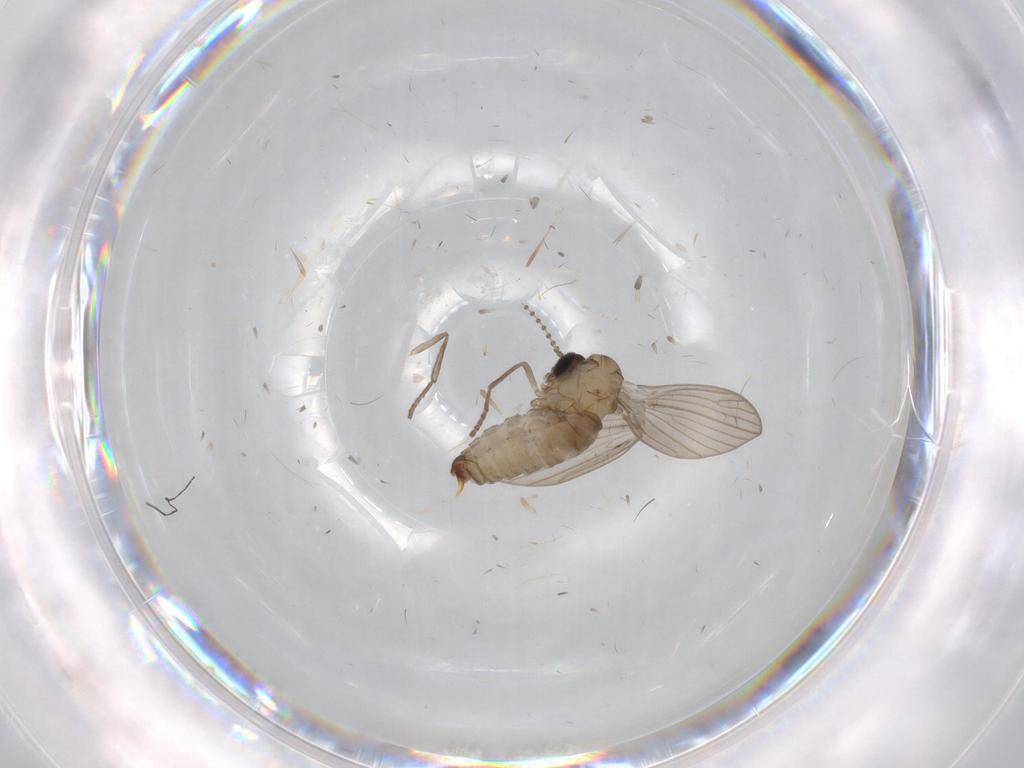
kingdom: Animalia
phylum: Arthropoda
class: Insecta
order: Diptera
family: Psychodidae
